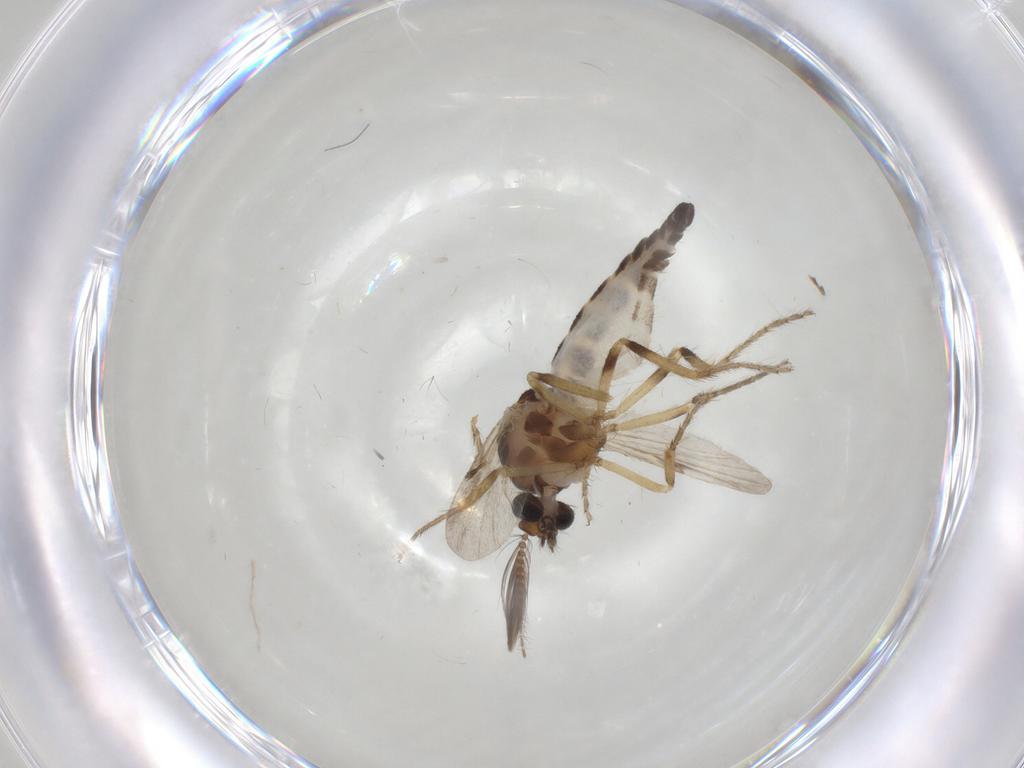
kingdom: Animalia
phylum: Arthropoda
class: Insecta
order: Diptera
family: Ceratopogonidae
